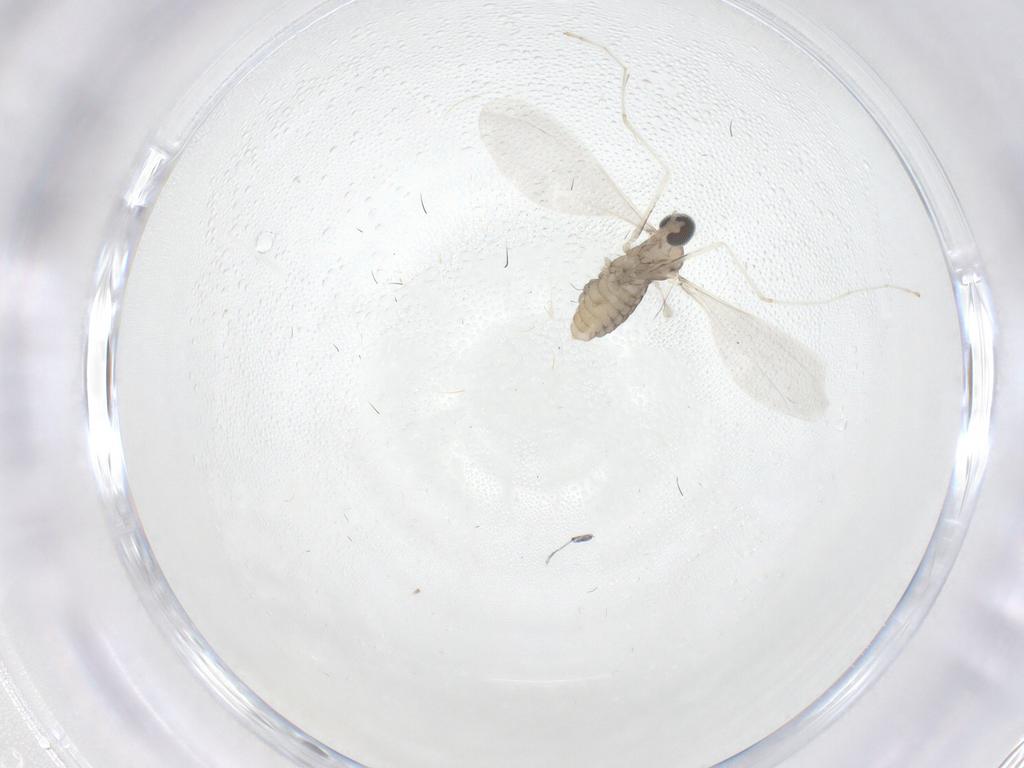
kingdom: Animalia
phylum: Arthropoda
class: Insecta
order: Diptera
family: Cecidomyiidae
